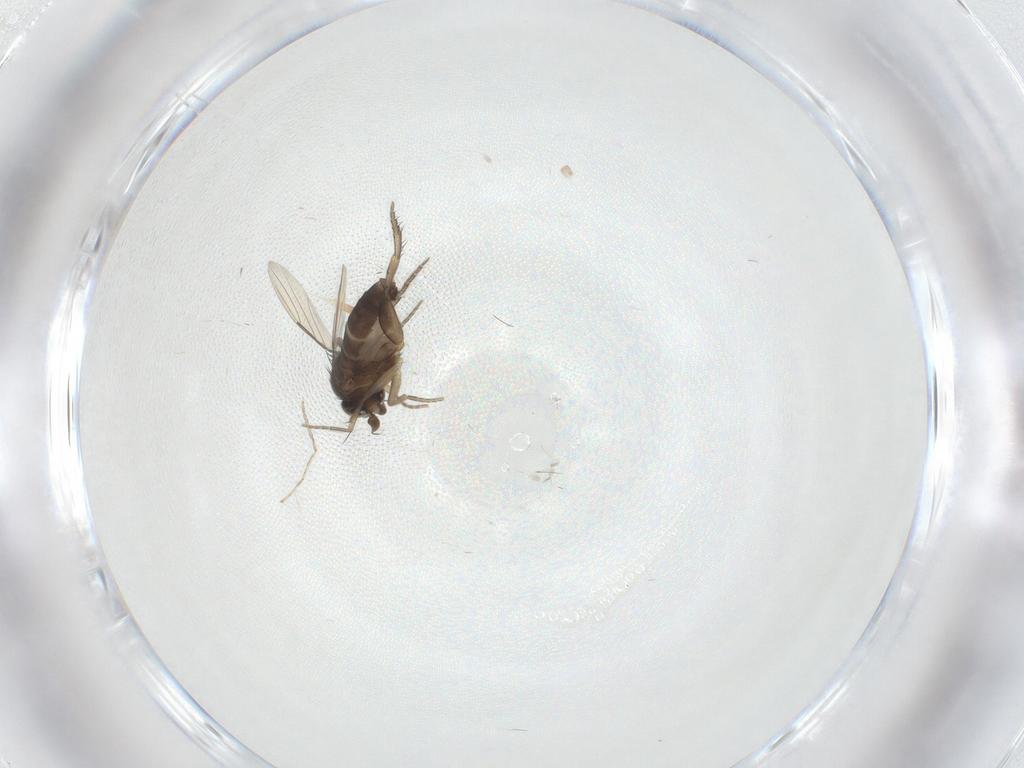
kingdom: Animalia
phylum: Arthropoda
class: Insecta
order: Diptera
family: Phoridae
